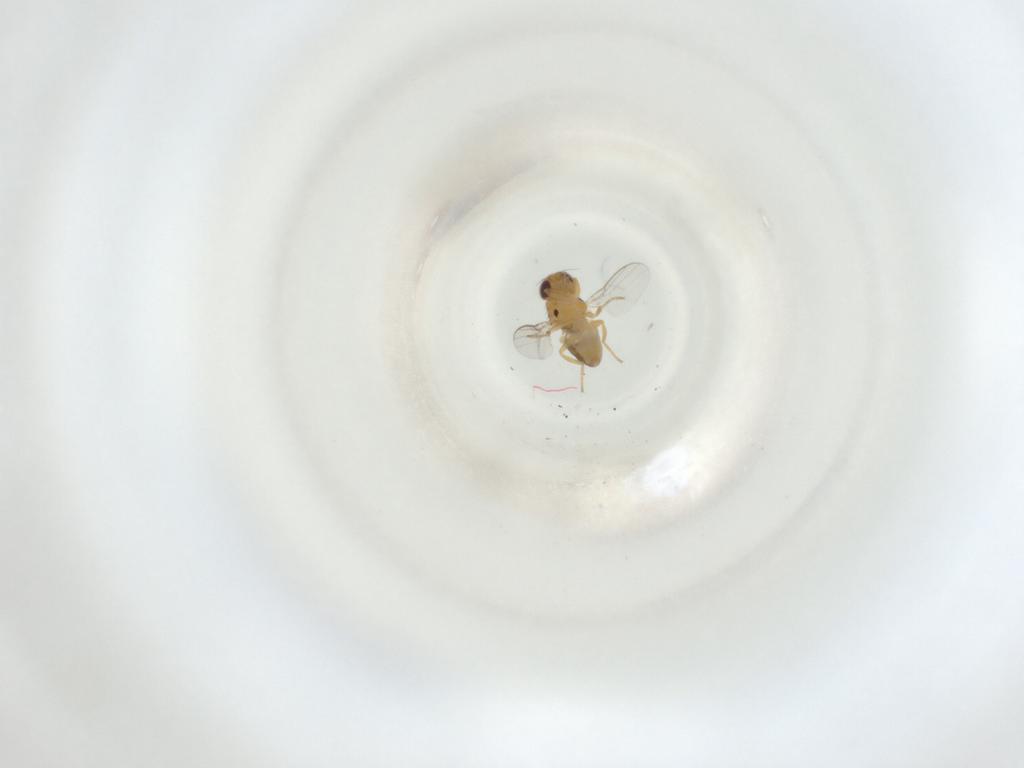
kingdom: Animalia
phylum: Arthropoda
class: Insecta
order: Diptera
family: Chloropidae
